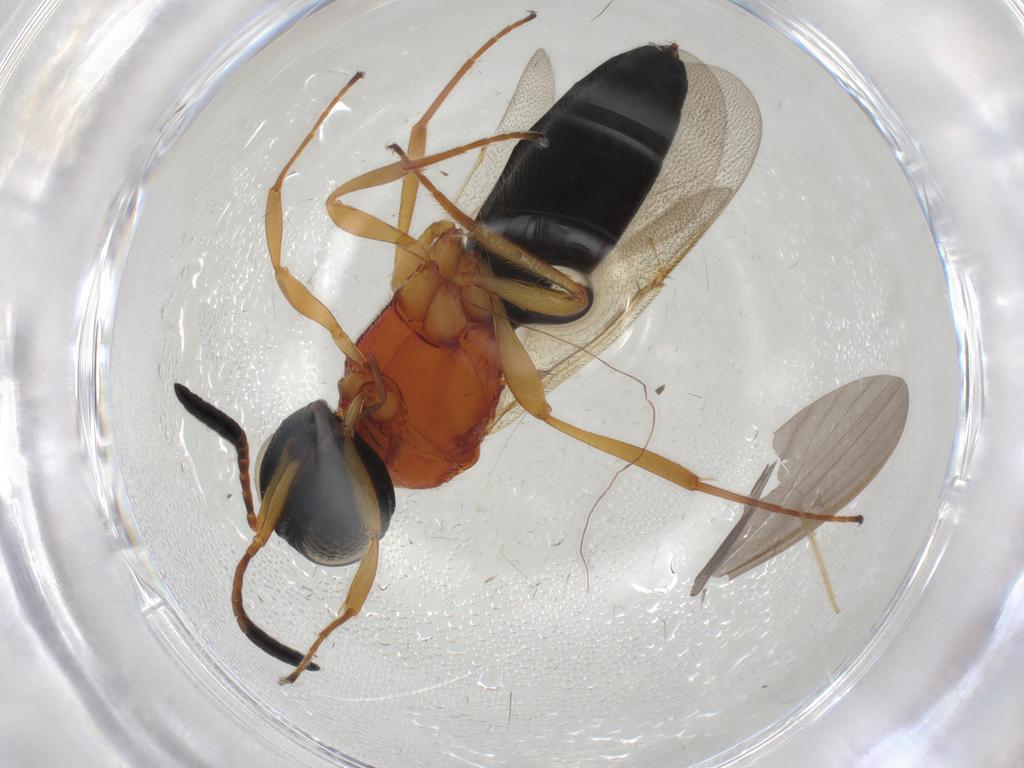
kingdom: Animalia
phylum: Arthropoda
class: Insecta
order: Hymenoptera
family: Scelionidae
